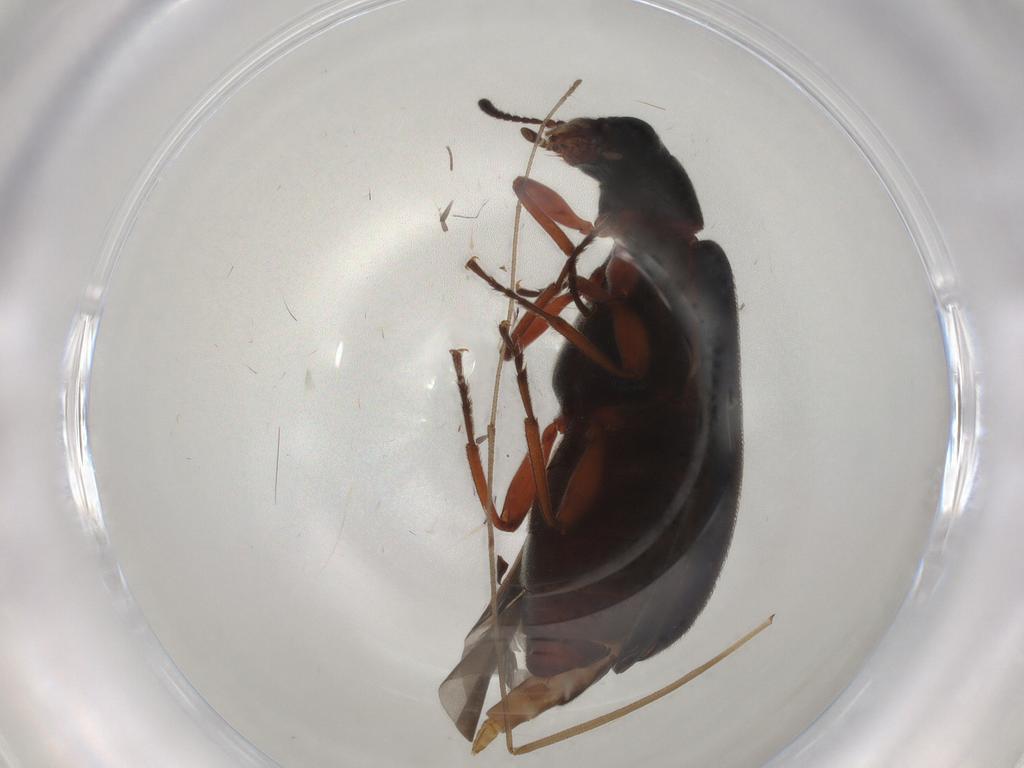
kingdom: Animalia
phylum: Arthropoda
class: Insecta
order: Coleoptera
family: Mycteridae
